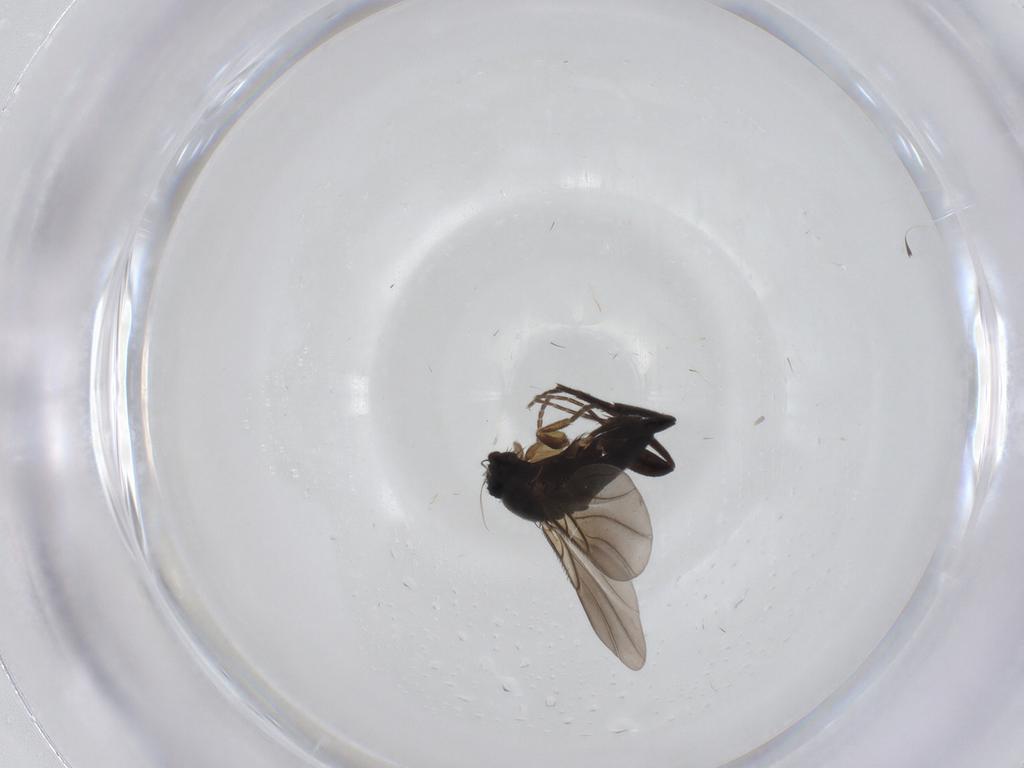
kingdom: Animalia
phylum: Arthropoda
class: Insecta
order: Diptera
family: Phoridae
